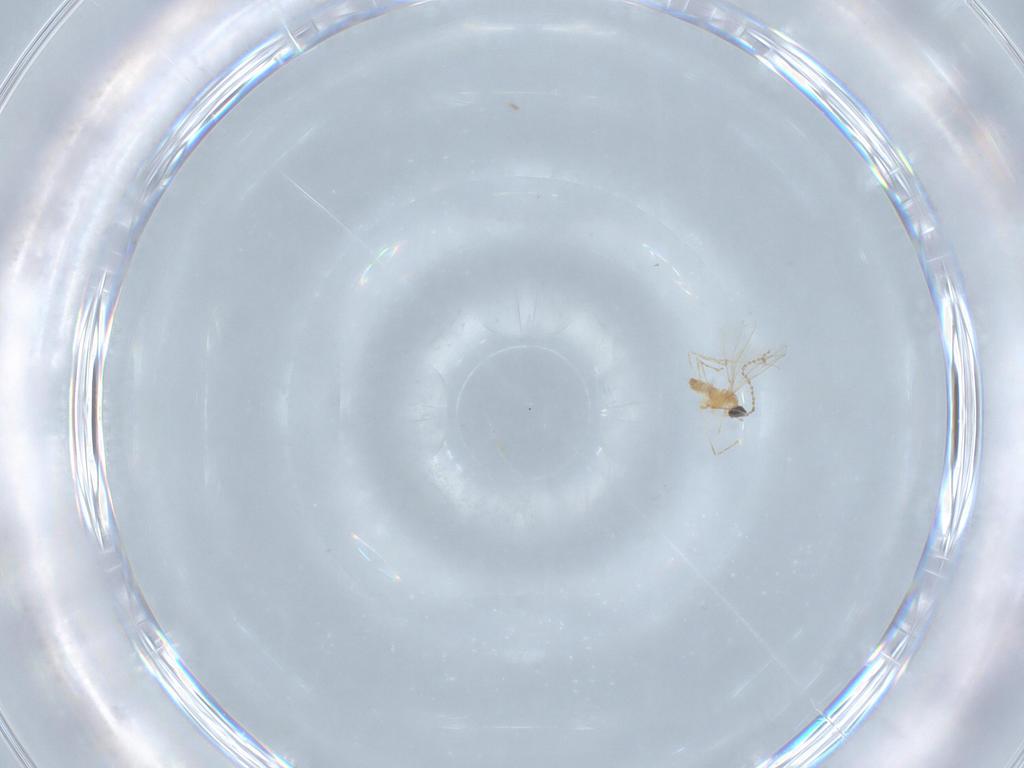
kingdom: Animalia
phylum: Arthropoda
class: Insecta
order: Diptera
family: Cecidomyiidae
